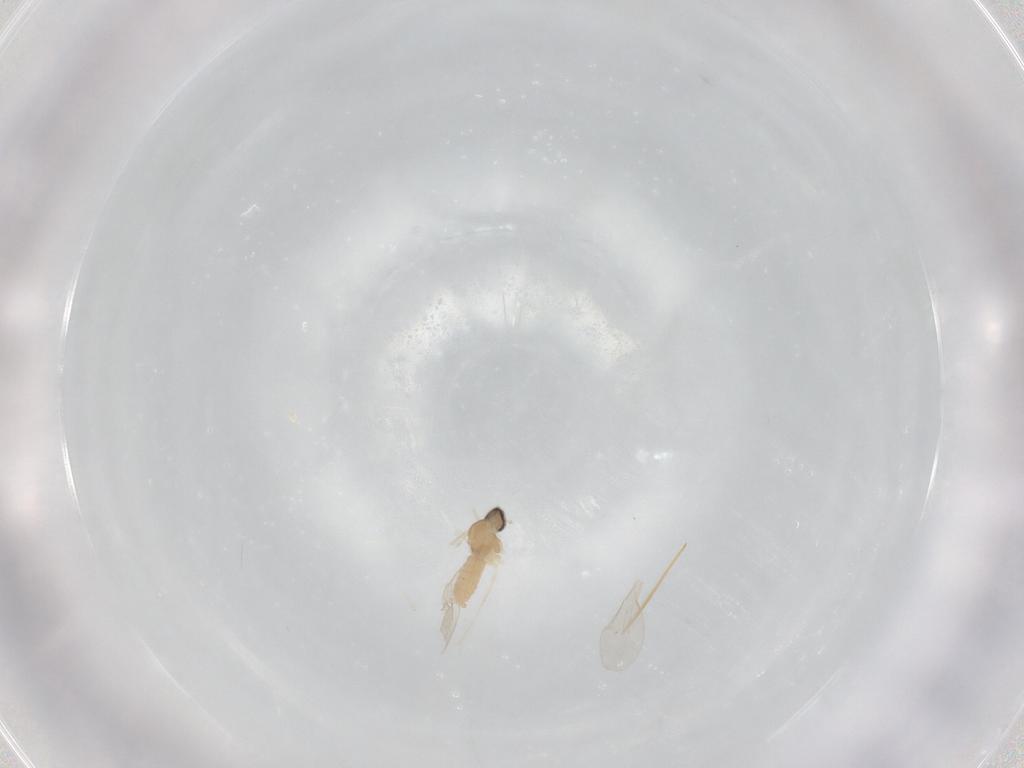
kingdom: Animalia
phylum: Arthropoda
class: Insecta
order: Diptera
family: Cecidomyiidae
